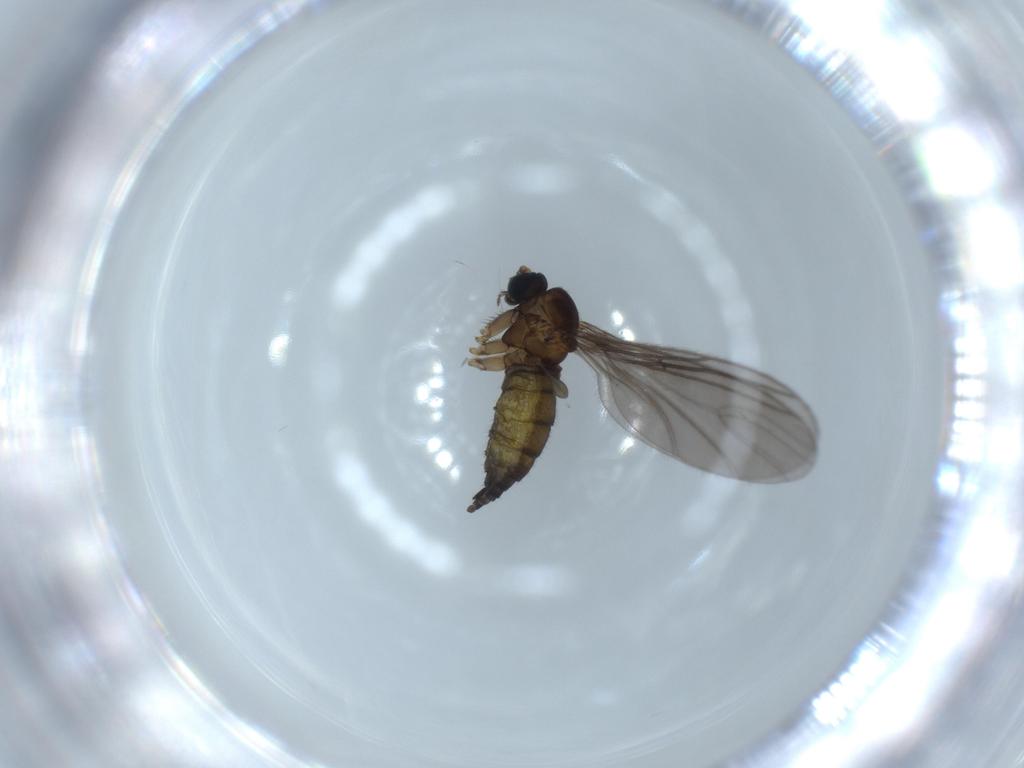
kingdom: Animalia
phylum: Arthropoda
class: Insecta
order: Diptera
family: Sciaridae
